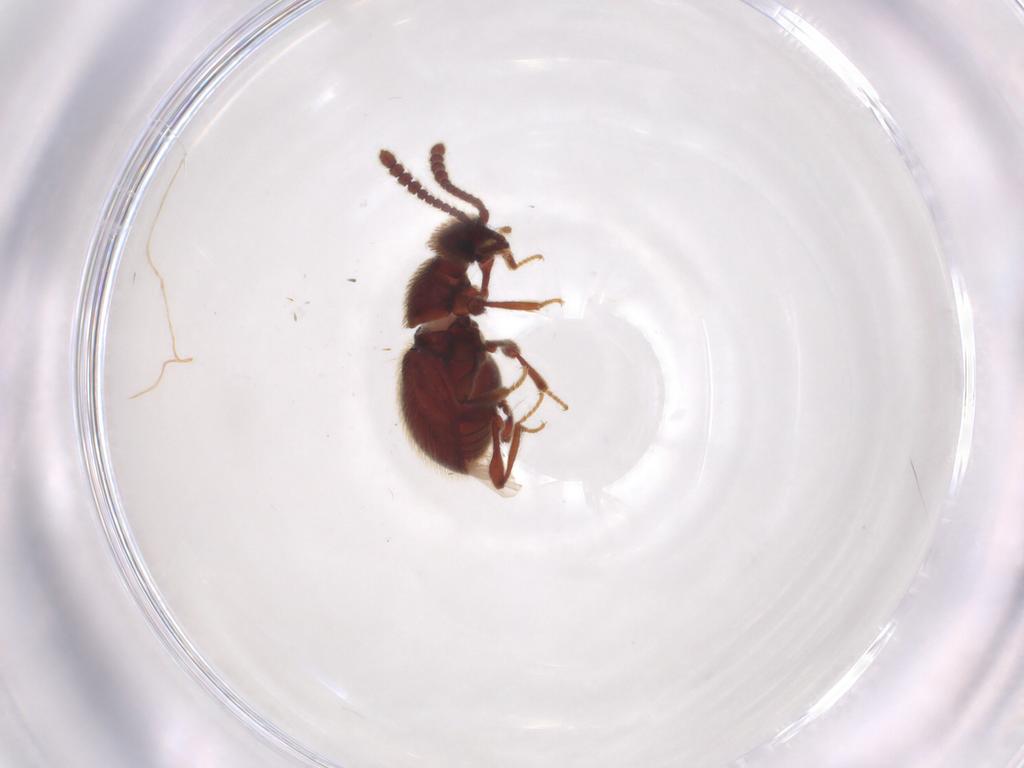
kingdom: Animalia
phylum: Arthropoda
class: Insecta
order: Coleoptera
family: Staphylinidae
